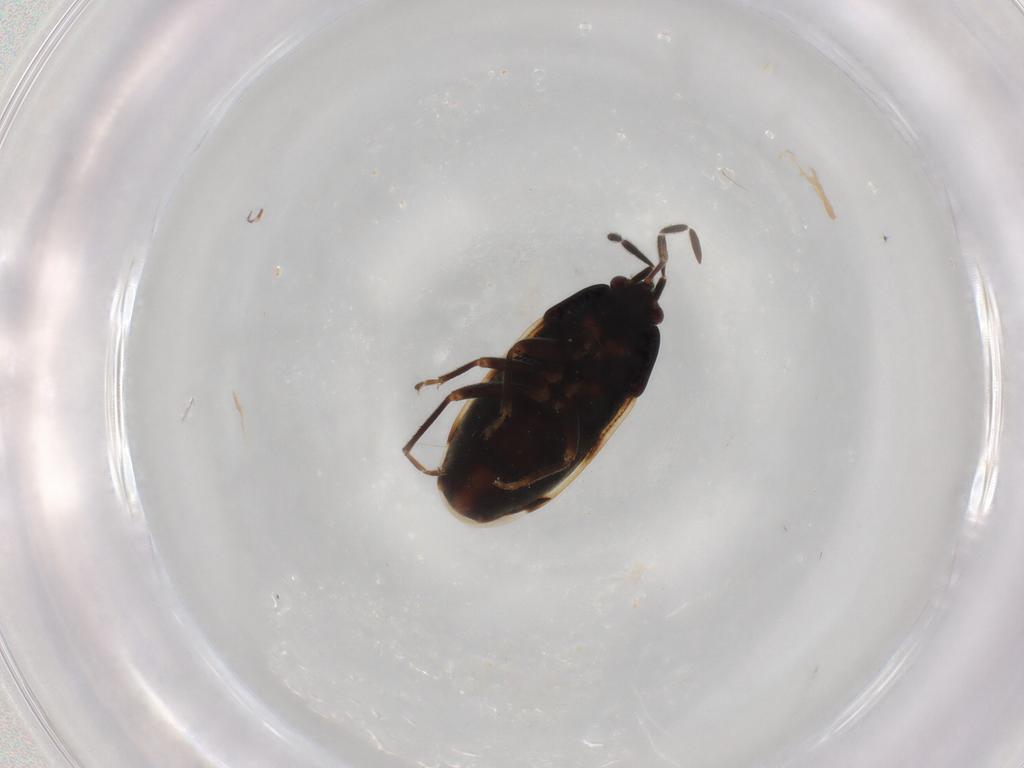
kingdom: Animalia
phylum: Arthropoda
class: Insecta
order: Hemiptera
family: Rhyparochromidae
